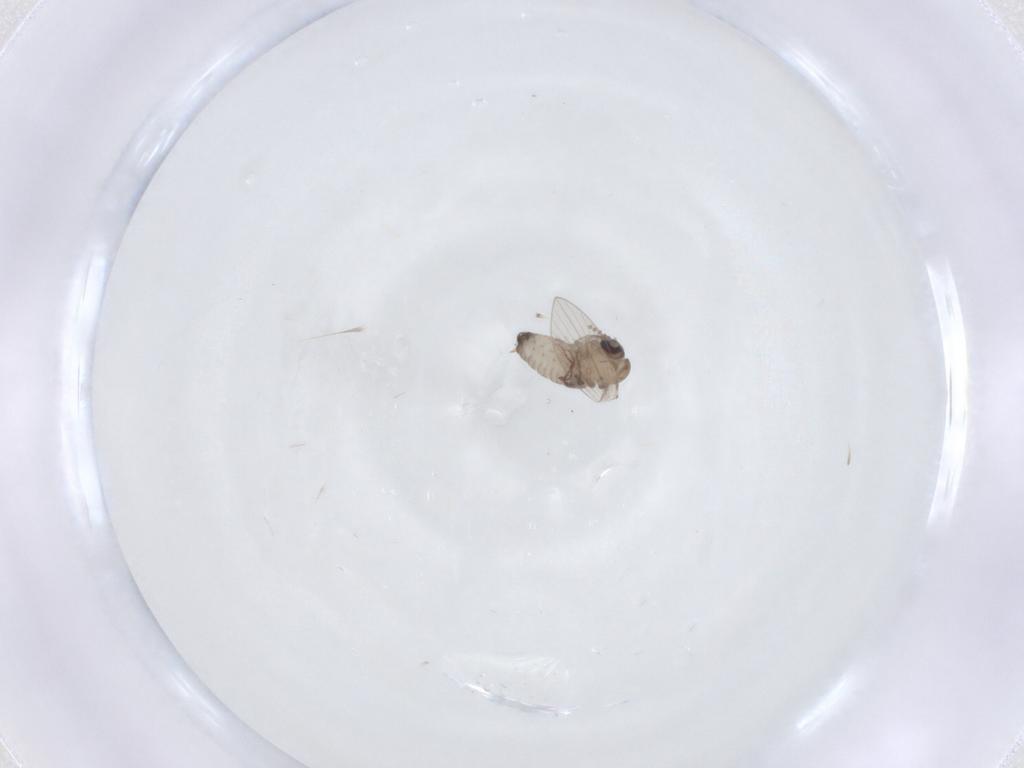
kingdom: Animalia
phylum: Arthropoda
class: Insecta
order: Diptera
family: Psychodidae
